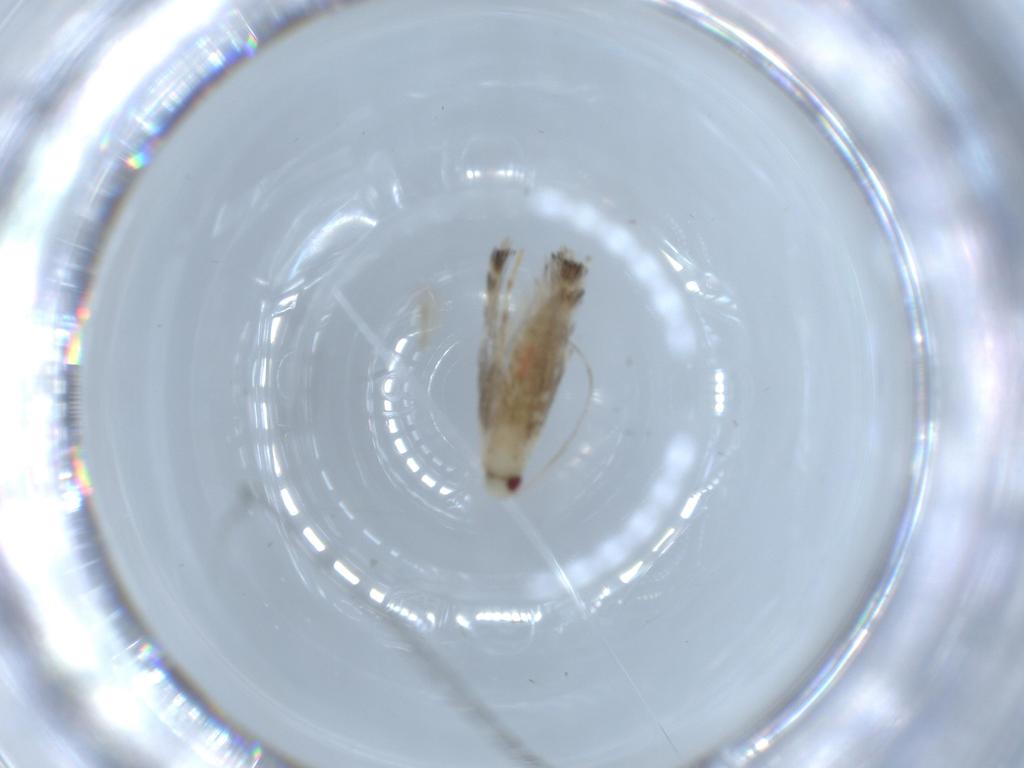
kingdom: Animalia
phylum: Arthropoda
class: Insecta
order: Lepidoptera
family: Gracillariidae
